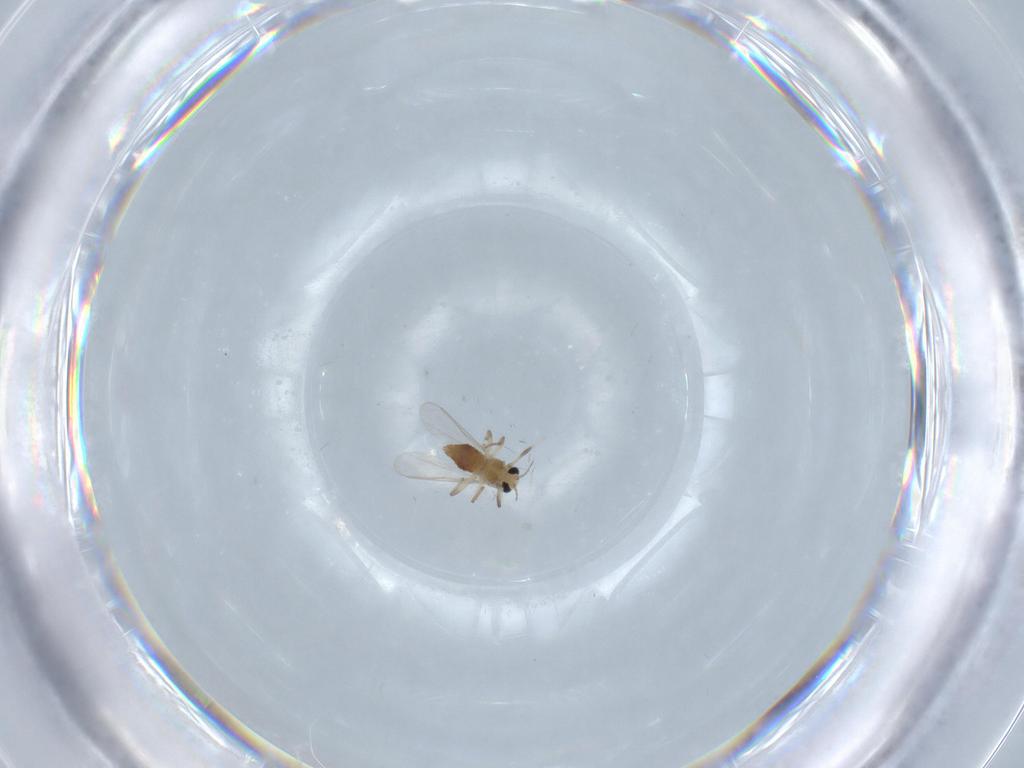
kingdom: Animalia
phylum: Arthropoda
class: Insecta
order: Diptera
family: Chironomidae
